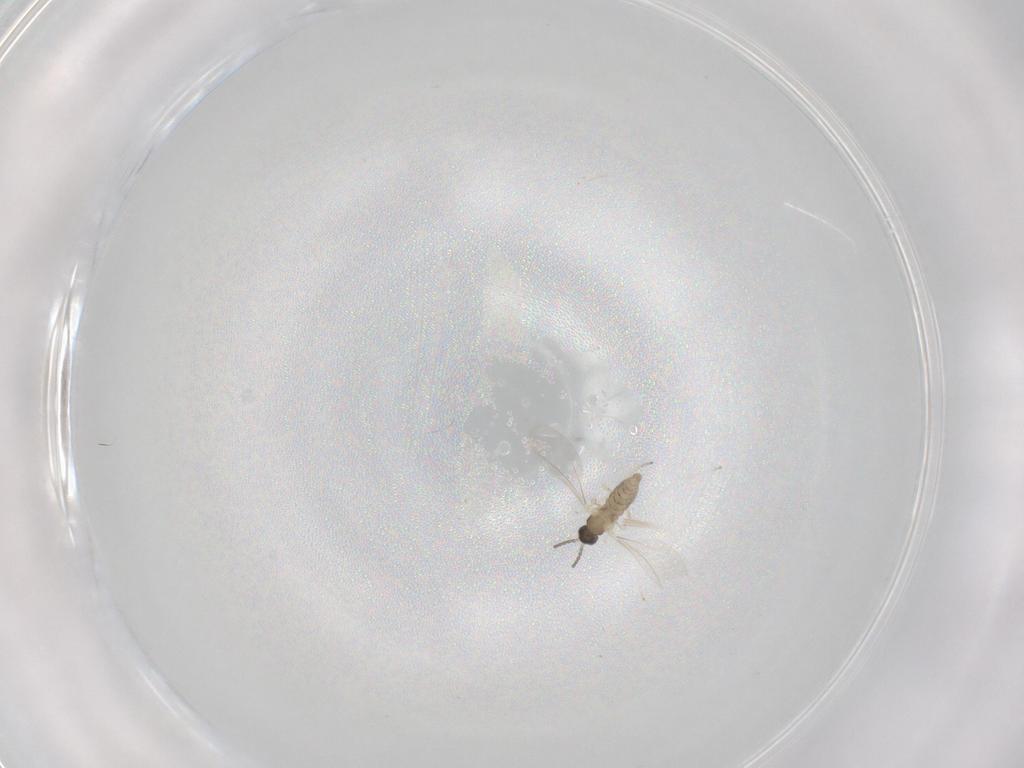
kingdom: Animalia
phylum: Arthropoda
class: Insecta
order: Diptera
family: Cecidomyiidae
